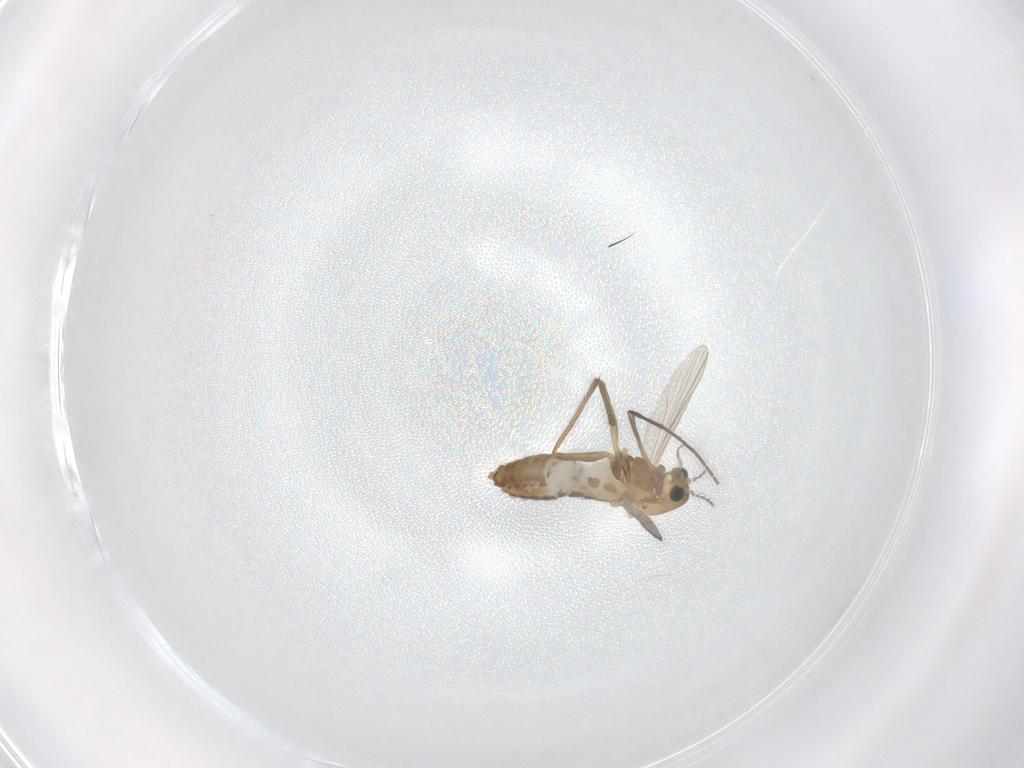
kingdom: Animalia
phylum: Arthropoda
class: Insecta
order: Diptera
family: Chironomidae
